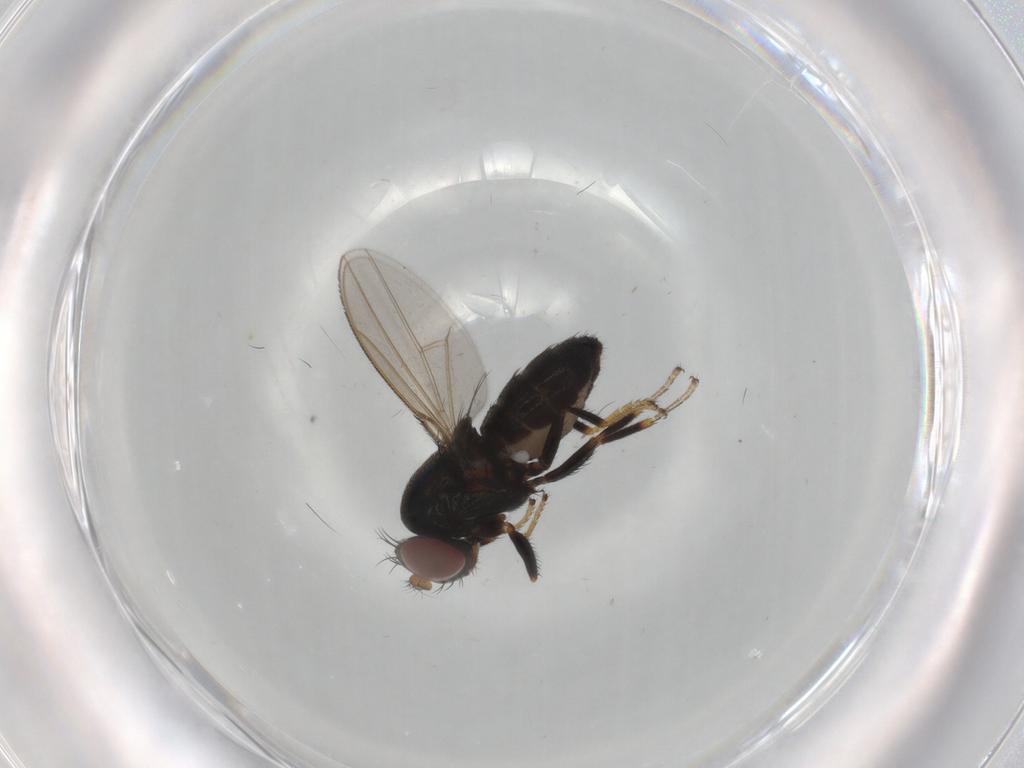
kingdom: Animalia
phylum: Arthropoda
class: Insecta
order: Diptera
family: Ephydridae
